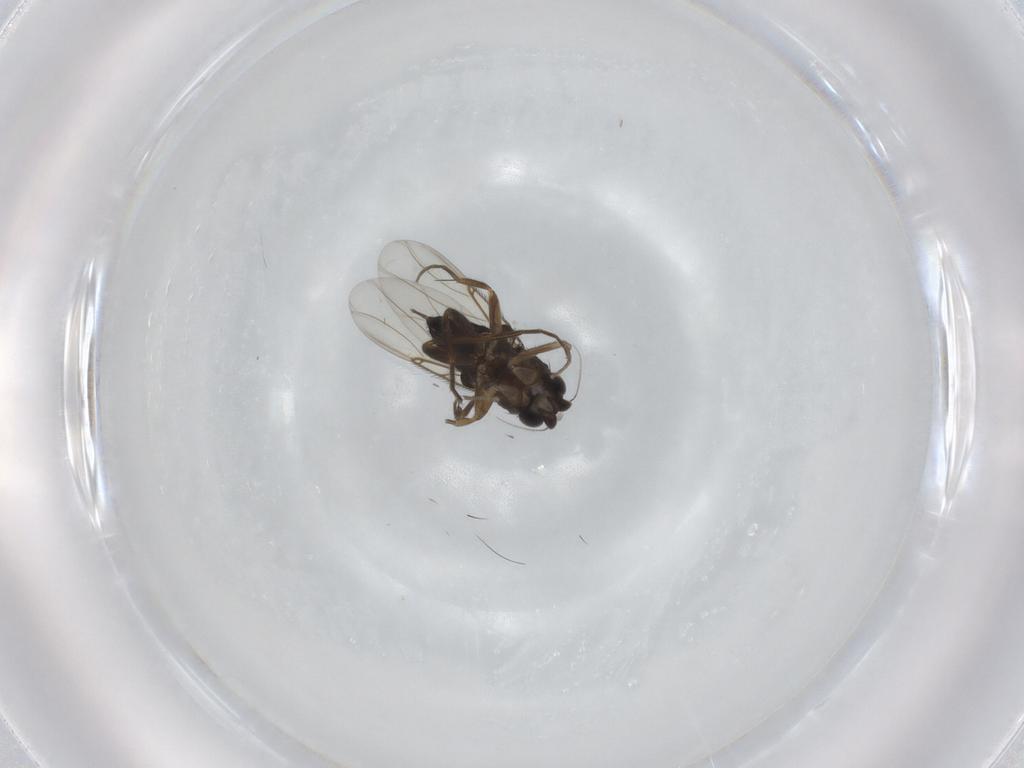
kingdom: Animalia
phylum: Arthropoda
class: Insecta
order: Diptera
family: Phoridae
